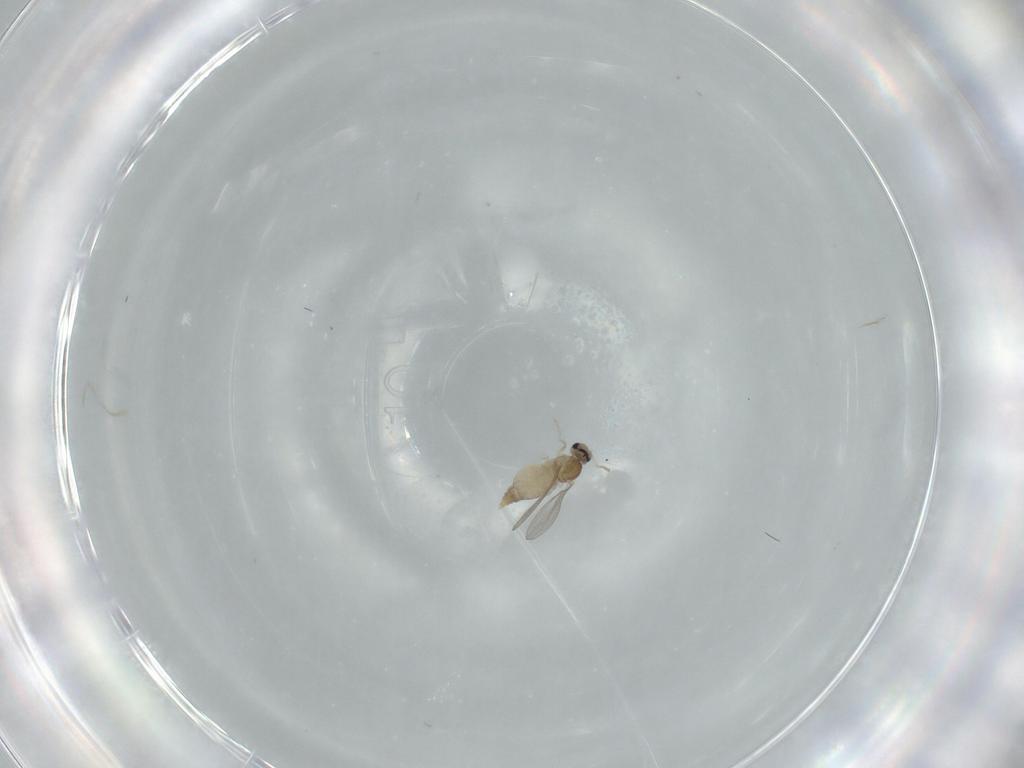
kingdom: Animalia
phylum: Arthropoda
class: Insecta
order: Diptera
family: Cecidomyiidae
